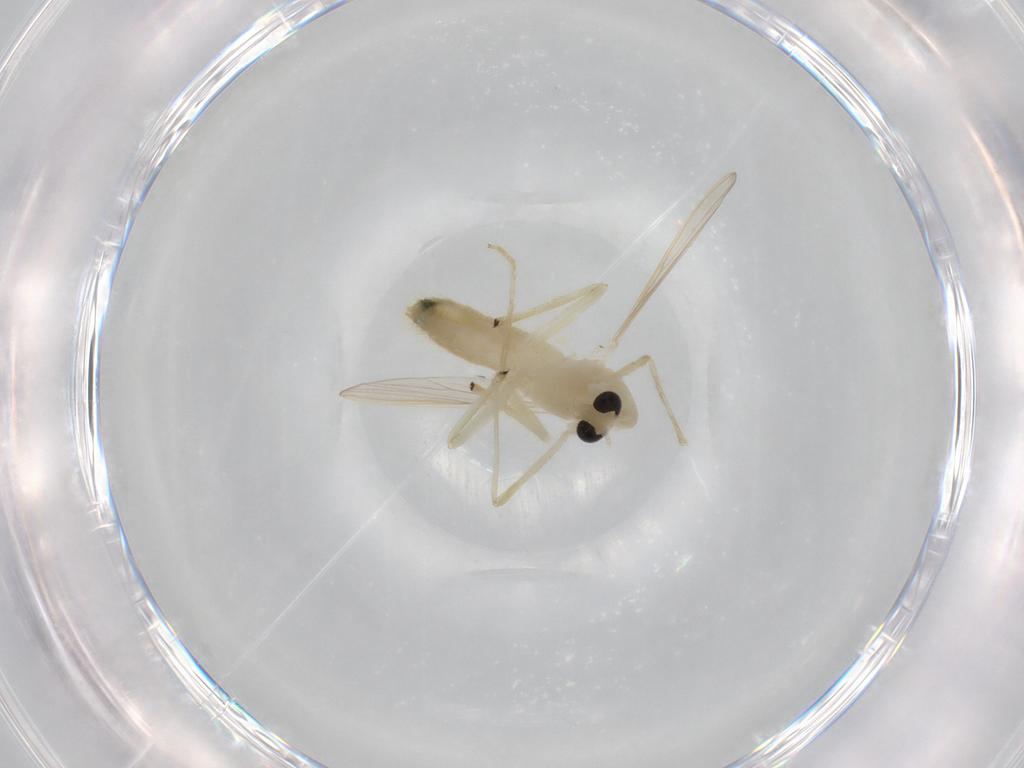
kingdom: Animalia
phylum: Arthropoda
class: Insecta
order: Diptera
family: Chironomidae
